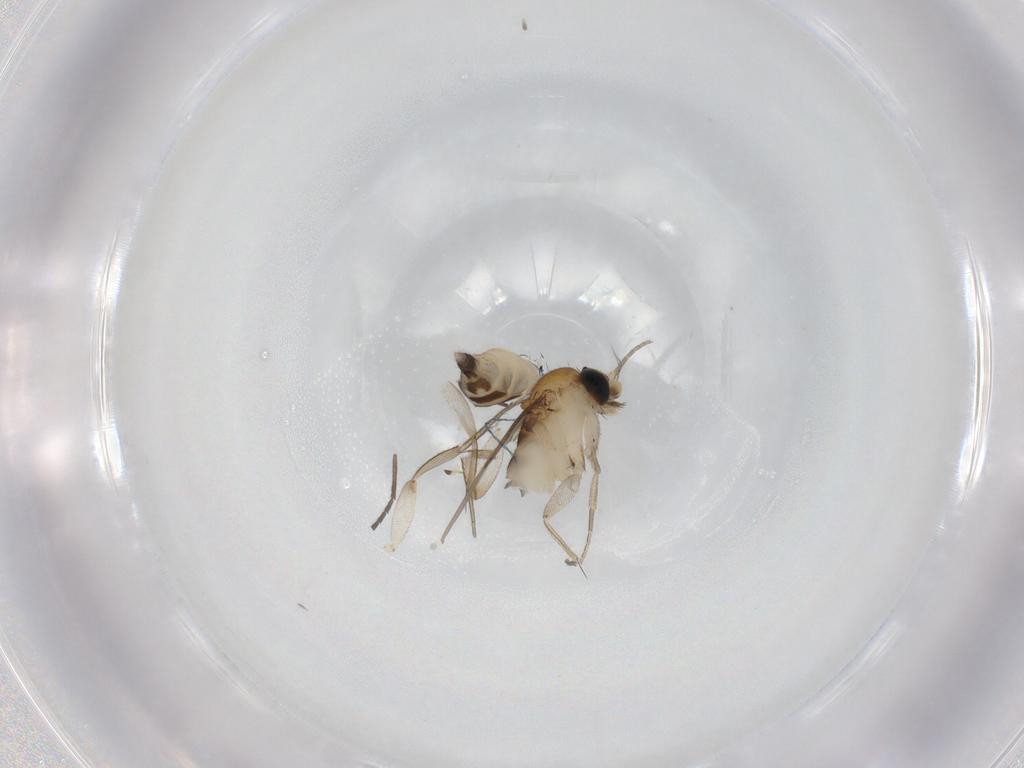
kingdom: Animalia
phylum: Arthropoda
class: Insecta
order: Diptera
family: Phoridae
